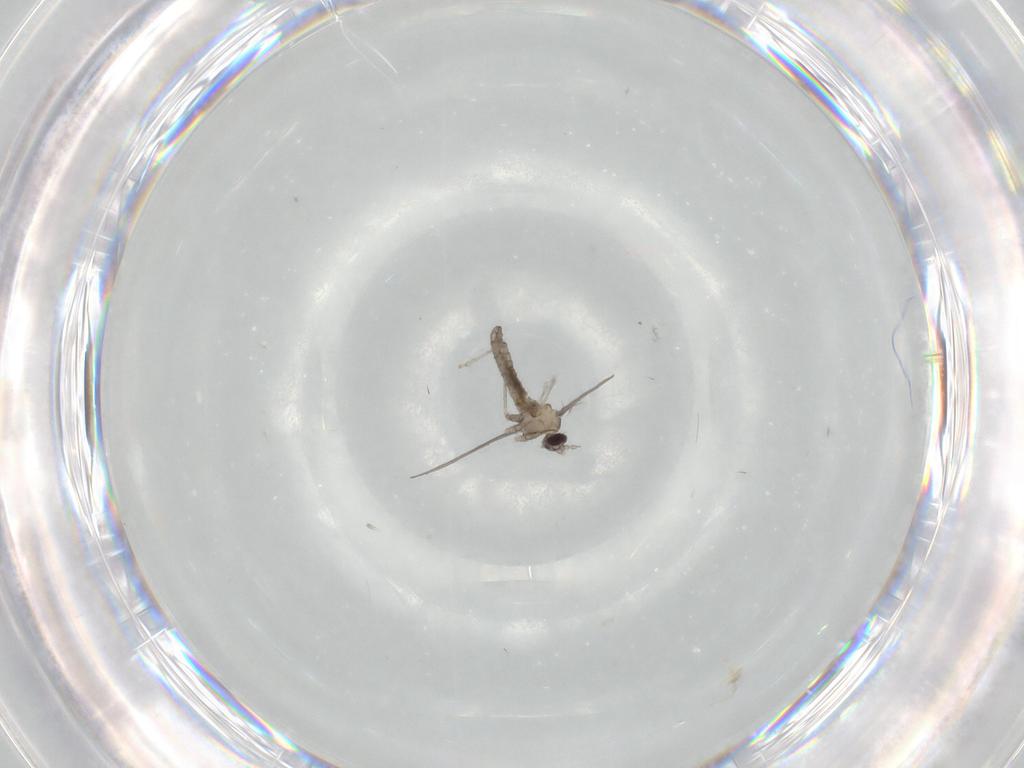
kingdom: Animalia
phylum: Arthropoda
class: Insecta
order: Diptera
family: Cecidomyiidae
